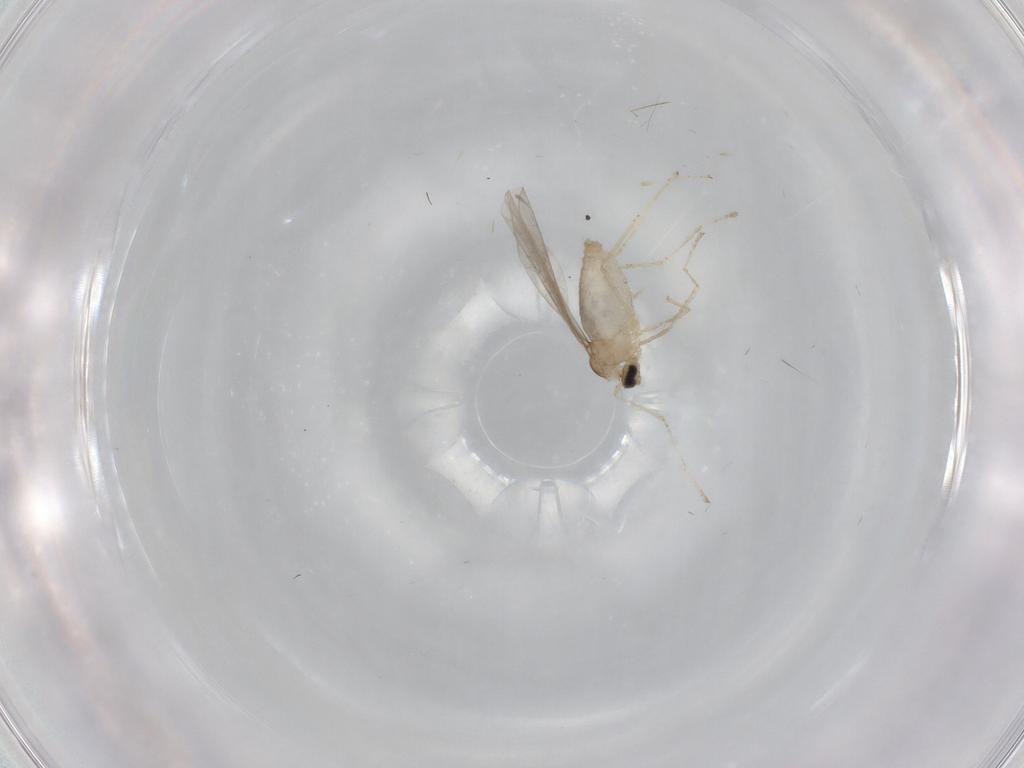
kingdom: Animalia
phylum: Arthropoda
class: Insecta
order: Diptera
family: Cecidomyiidae
